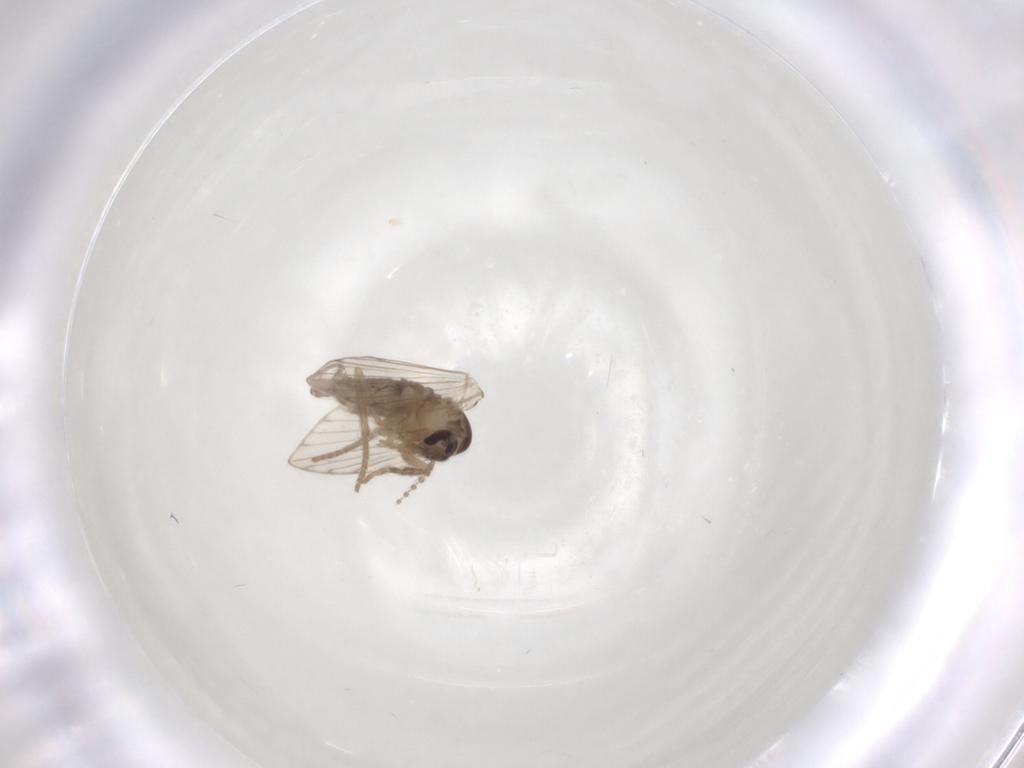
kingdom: Animalia
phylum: Arthropoda
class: Insecta
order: Diptera
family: Psychodidae
